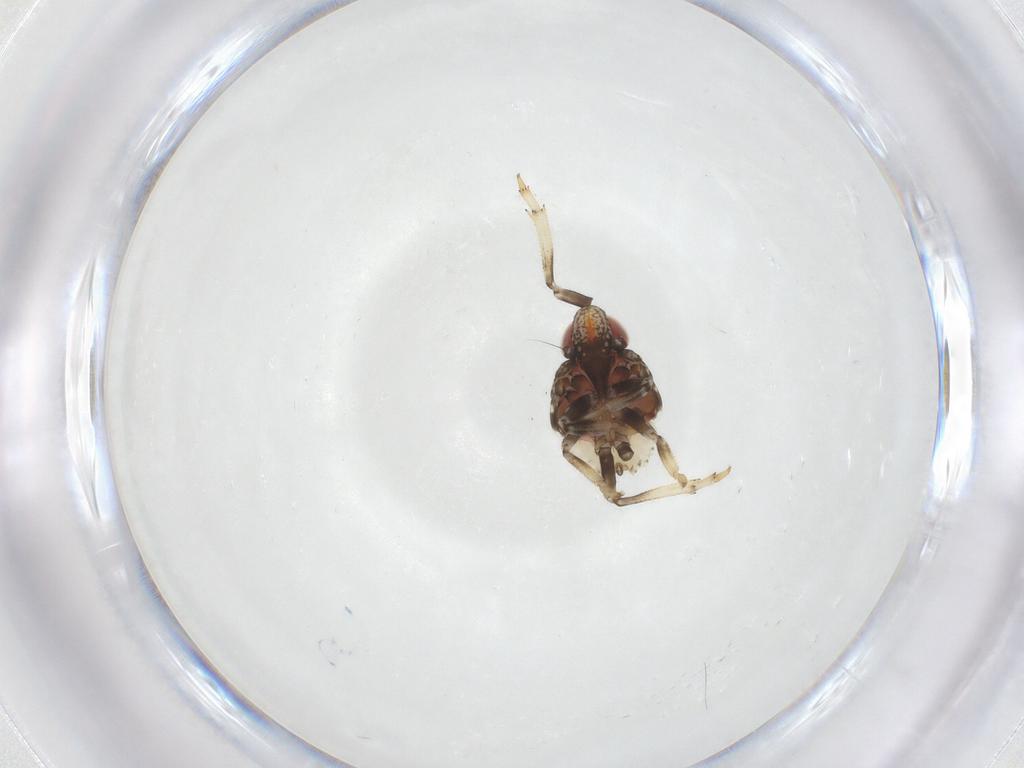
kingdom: Animalia
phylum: Arthropoda
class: Insecta
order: Hemiptera
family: Issidae
